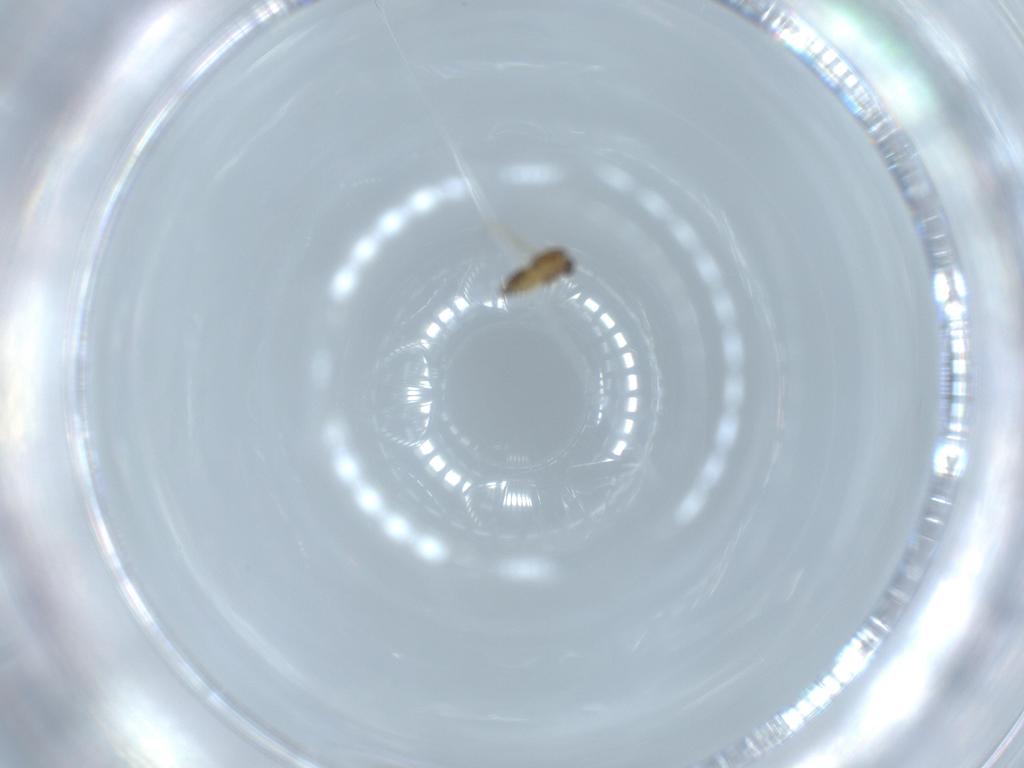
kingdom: Animalia
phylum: Arthropoda
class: Insecta
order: Diptera
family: Chironomidae
